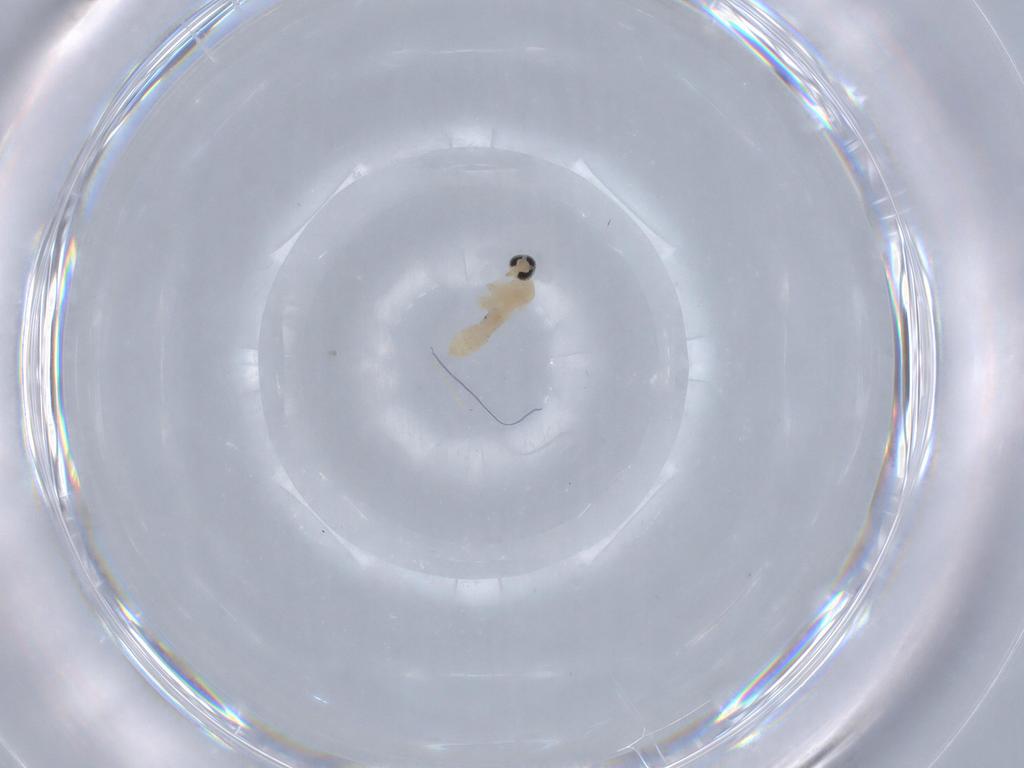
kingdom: Animalia
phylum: Arthropoda
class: Insecta
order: Diptera
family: Cecidomyiidae
